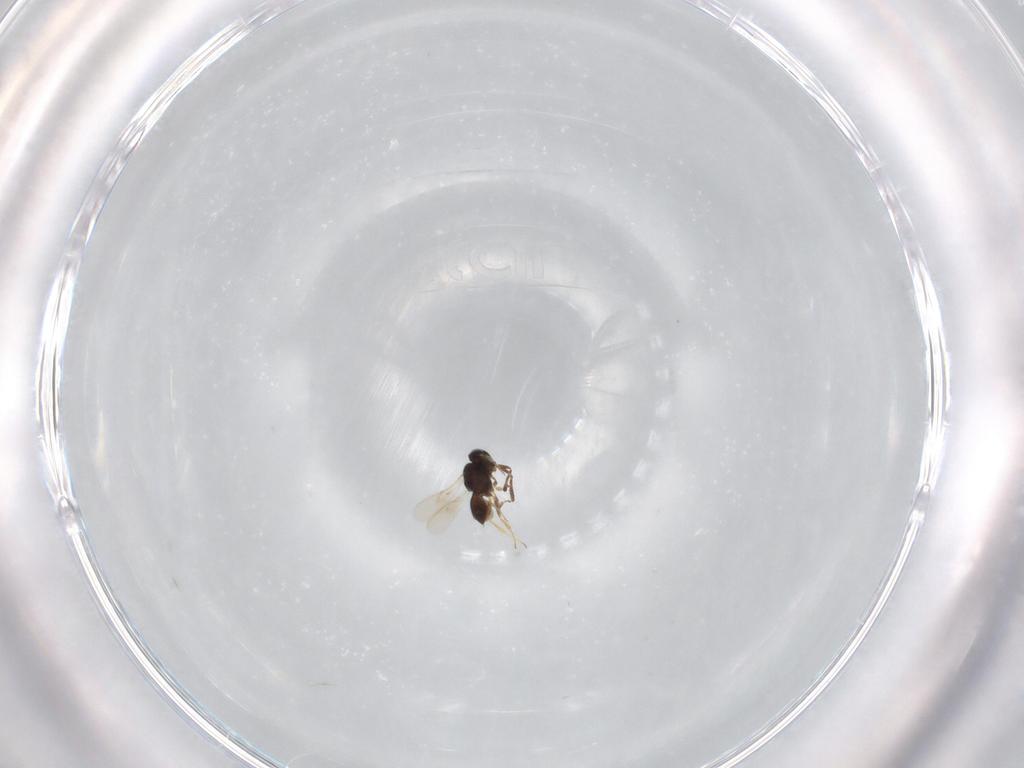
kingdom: Animalia
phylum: Arthropoda
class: Insecta
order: Hymenoptera
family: Scelionidae
